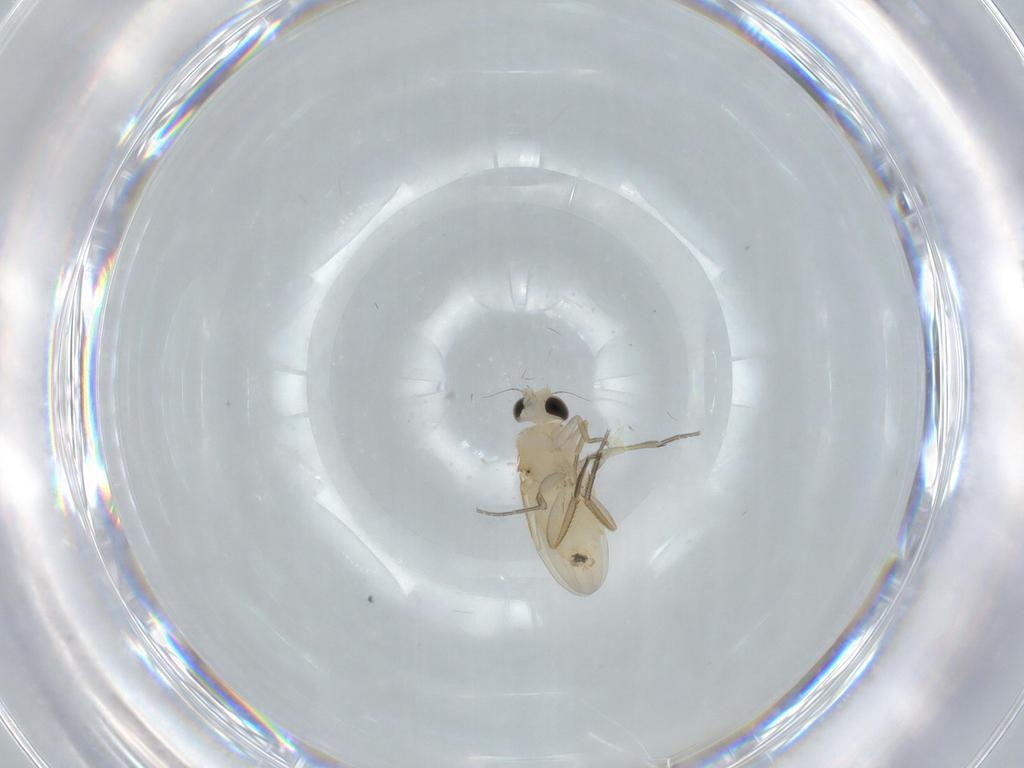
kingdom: Animalia
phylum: Arthropoda
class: Insecta
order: Diptera
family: Phoridae
